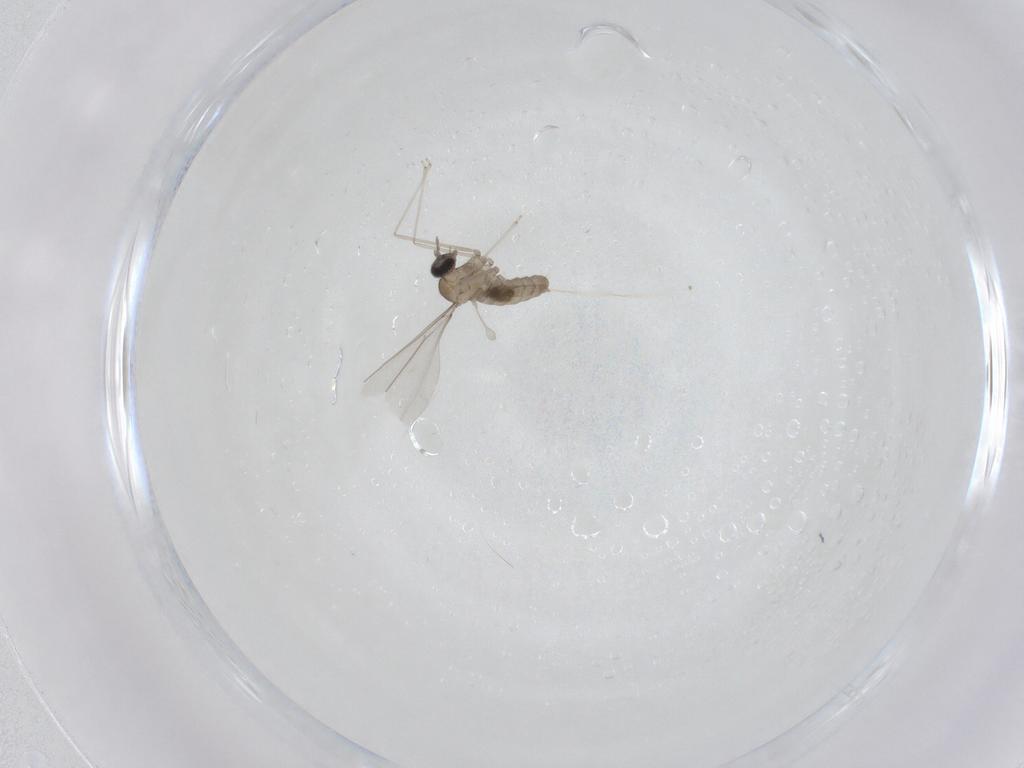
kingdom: Animalia
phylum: Arthropoda
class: Insecta
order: Diptera
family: Cecidomyiidae
